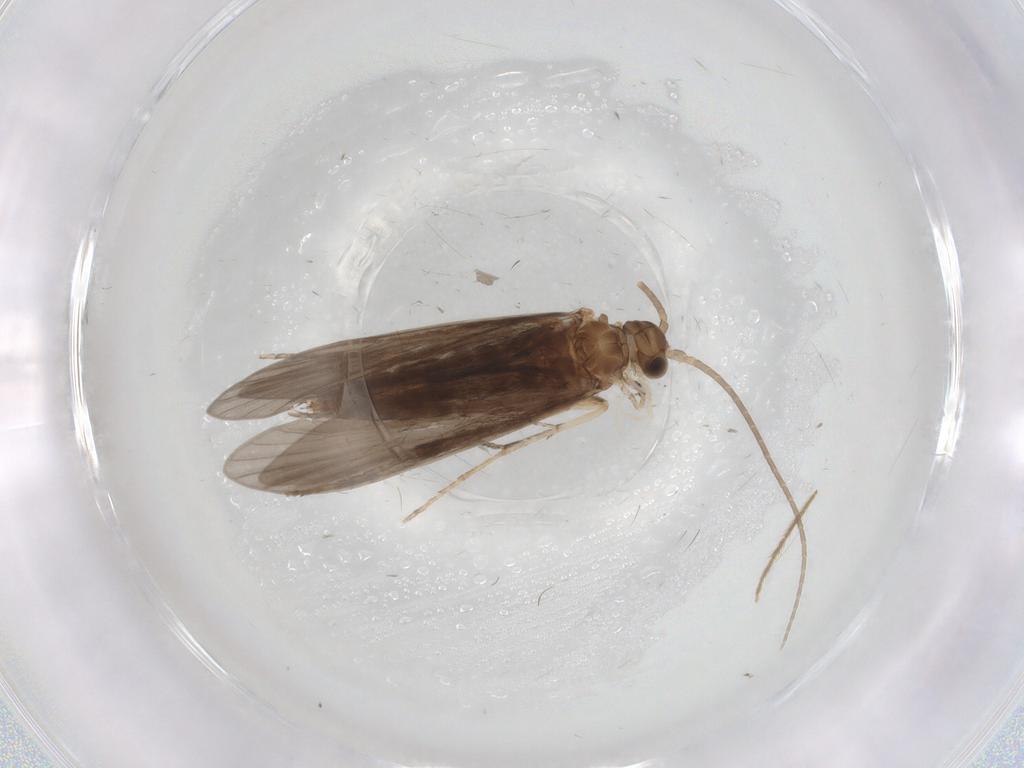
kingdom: Animalia
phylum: Arthropoda
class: Insecta
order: Trichoptera
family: Xiphocentronidae
